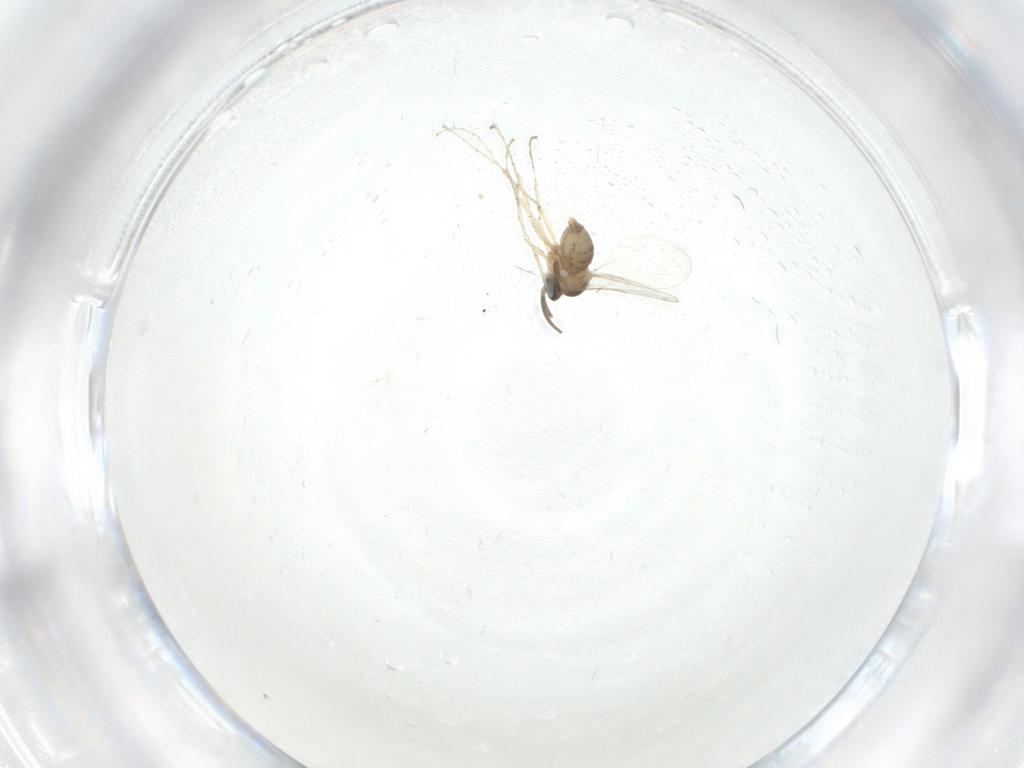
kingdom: Animalia
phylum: Arthropoda
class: Insecta
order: Diptera
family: Cecidomyiidae
